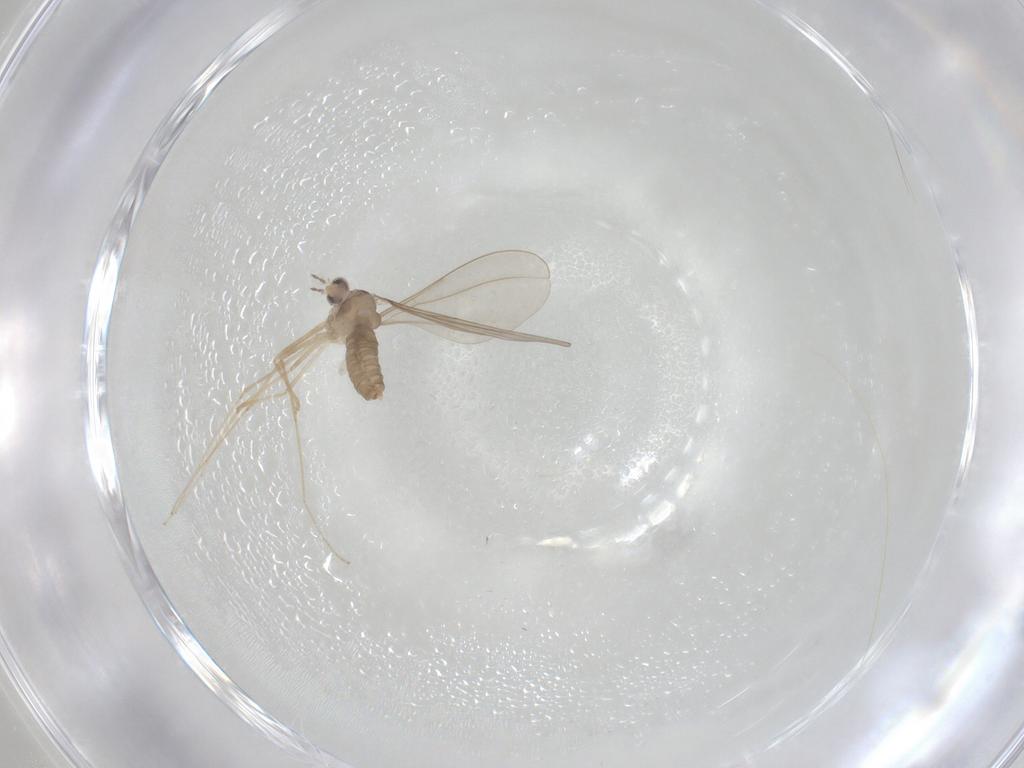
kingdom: Animalia
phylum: Arthropoda
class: Insecta
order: Diptera
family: Cecidomyiidae
